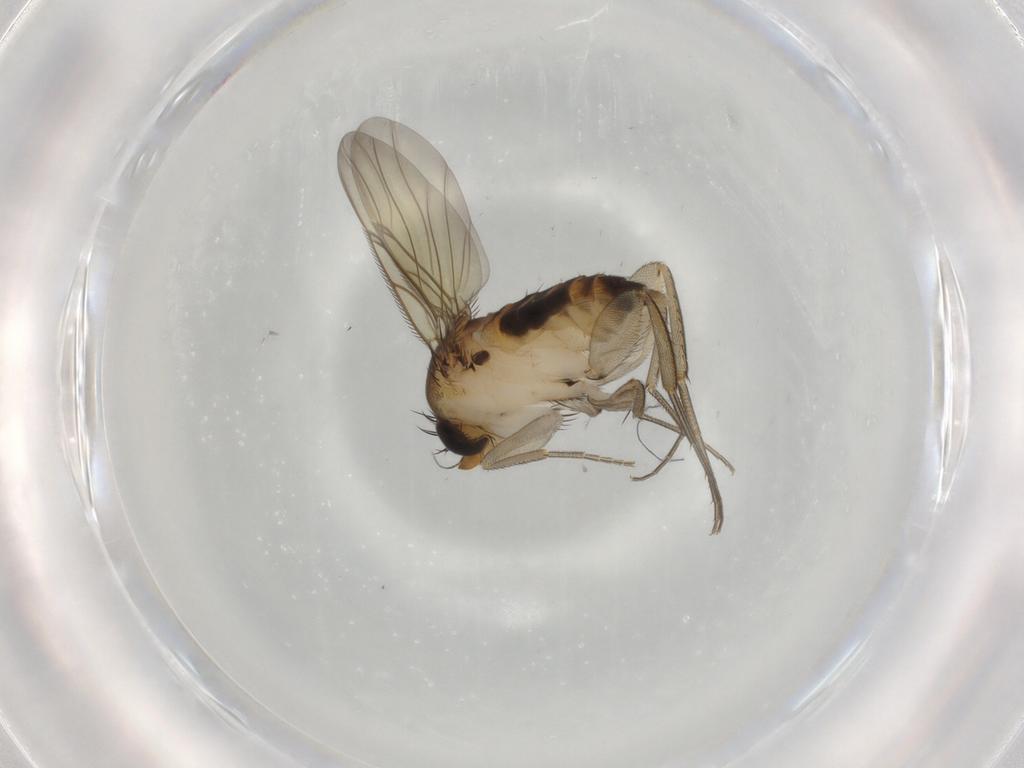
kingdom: Animalia
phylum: Arthropoda
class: Insecta
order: Diptera
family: Phoridae
